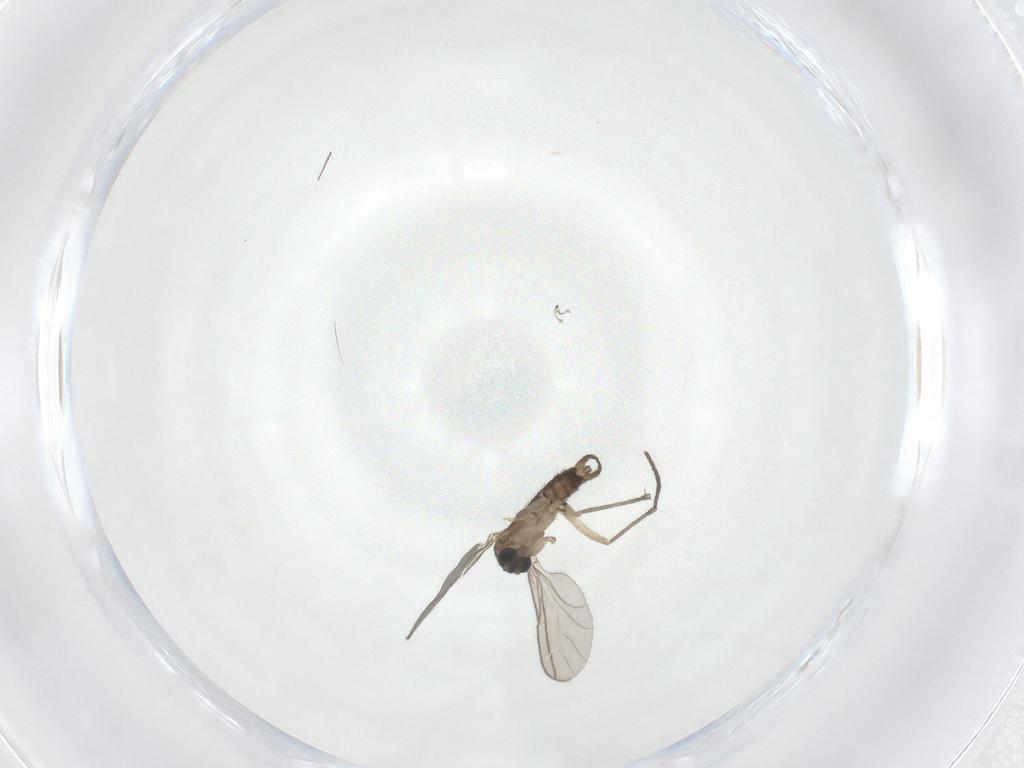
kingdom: Animalia
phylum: Arthropoda
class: Insecta
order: Diptera
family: Sciaridae
